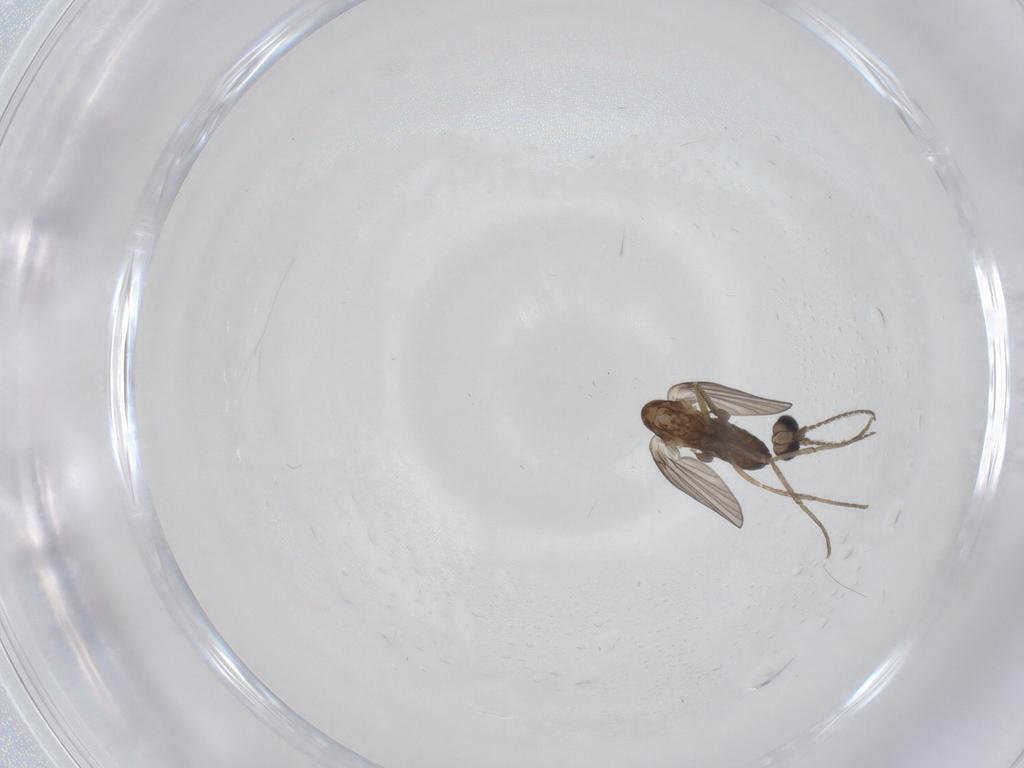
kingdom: Animalia
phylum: Arthropoda
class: Insecta
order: Diptera
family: Psychodidae
